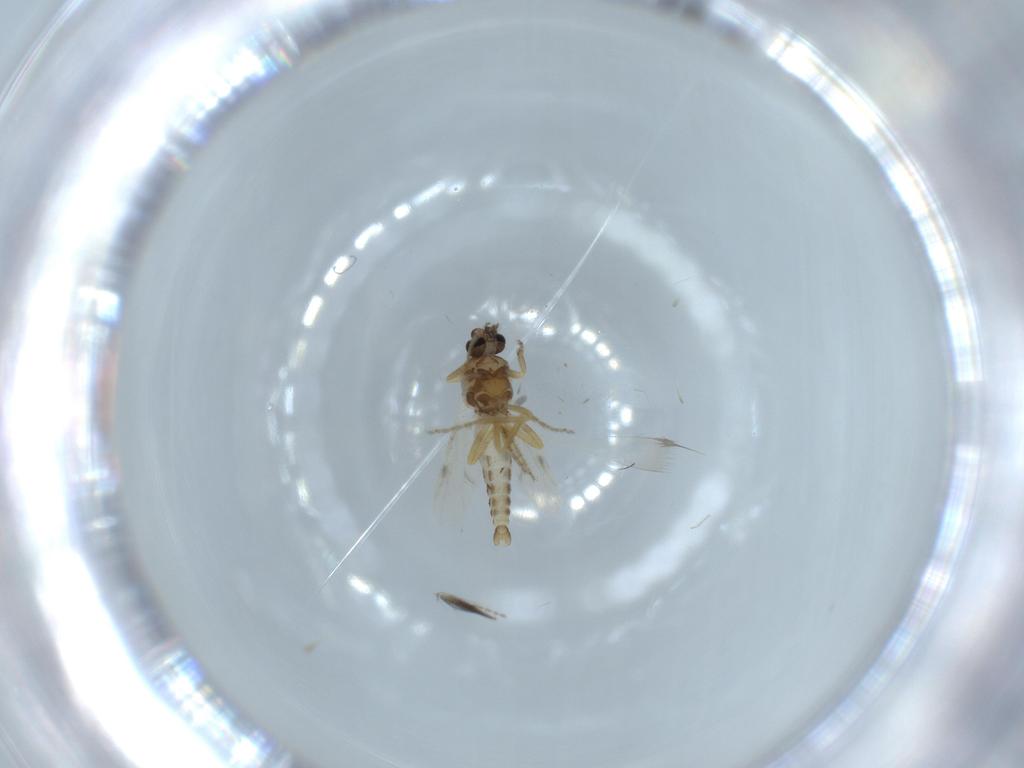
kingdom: Animalia
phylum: Arthropoda
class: Insecta
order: Diptera
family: Ceratopogonidae
